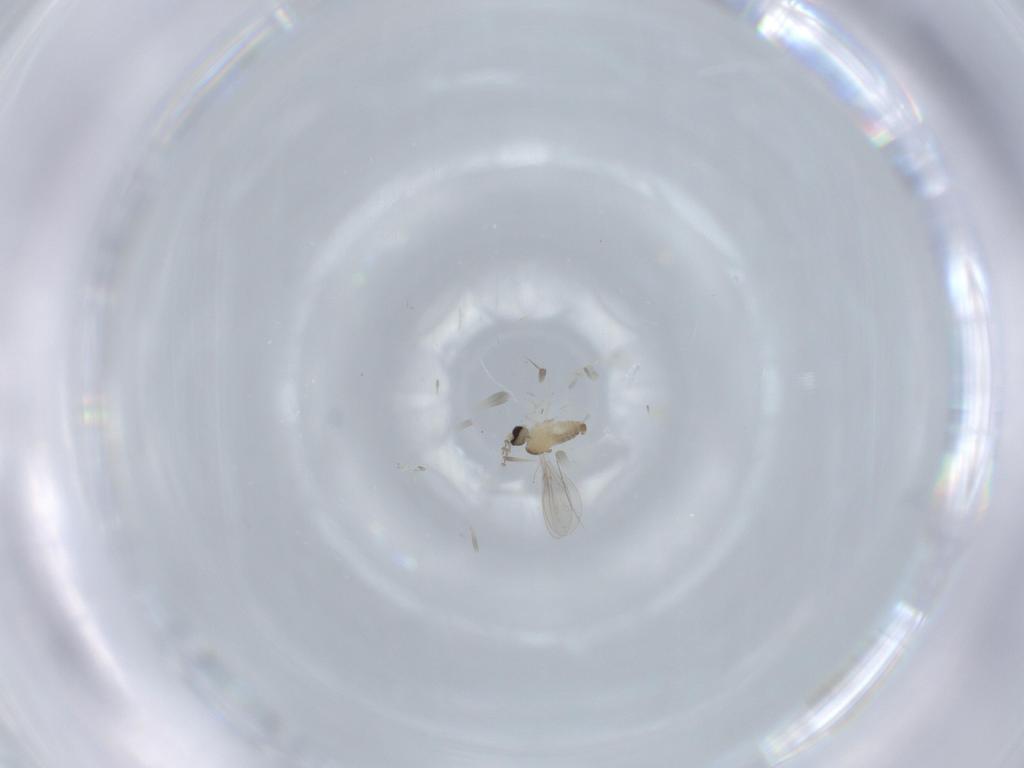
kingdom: Animalia
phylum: Arthropoda
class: Insecta
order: Diptera
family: Cecidomyiidae
